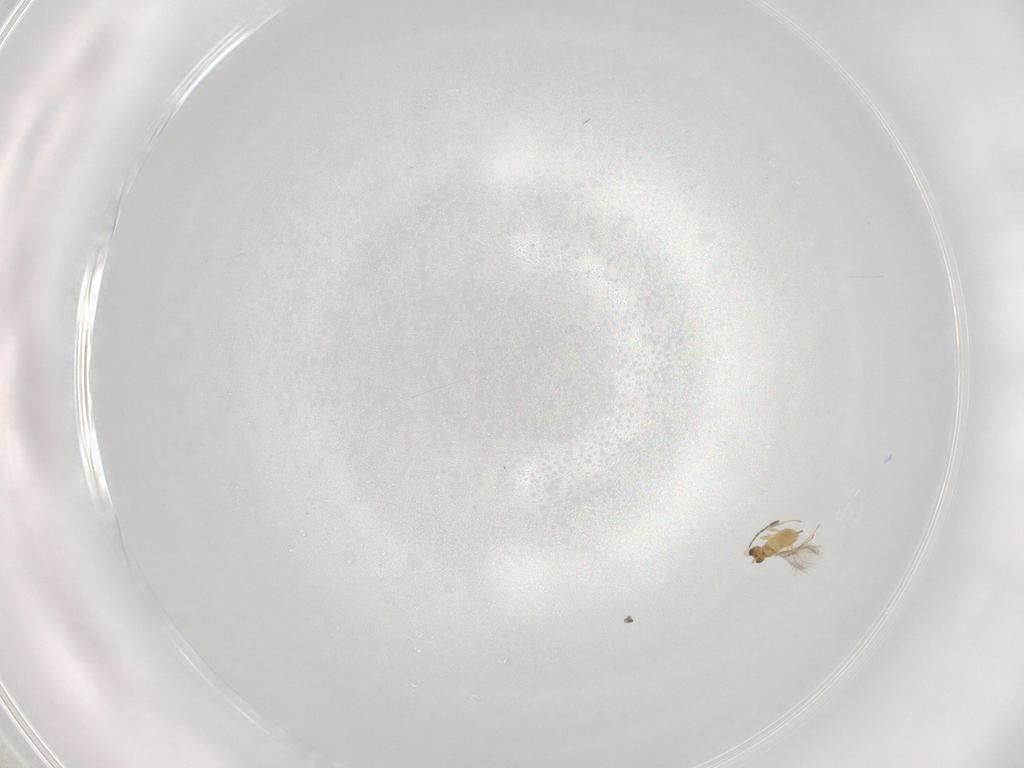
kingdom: Animalia
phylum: Arthropoda
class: Insecta
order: Hymenoptera
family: Mymaridae
